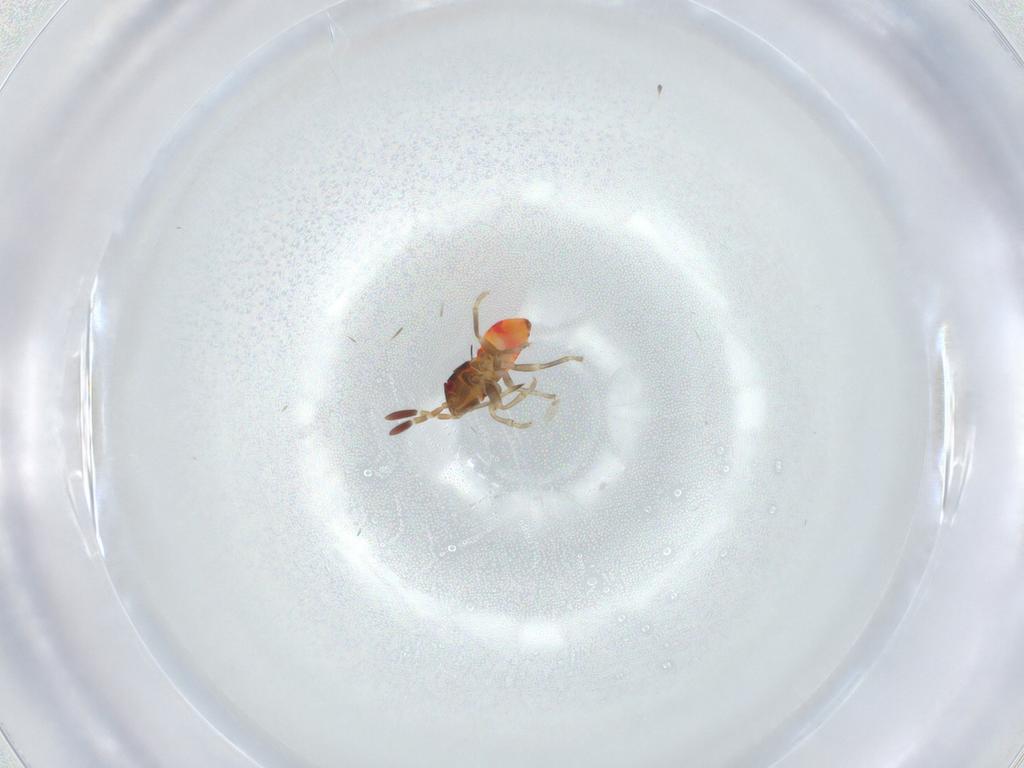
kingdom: Animalia
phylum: Arthropoda
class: Insecta
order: Hemiptera
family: Rhyparochromidae
